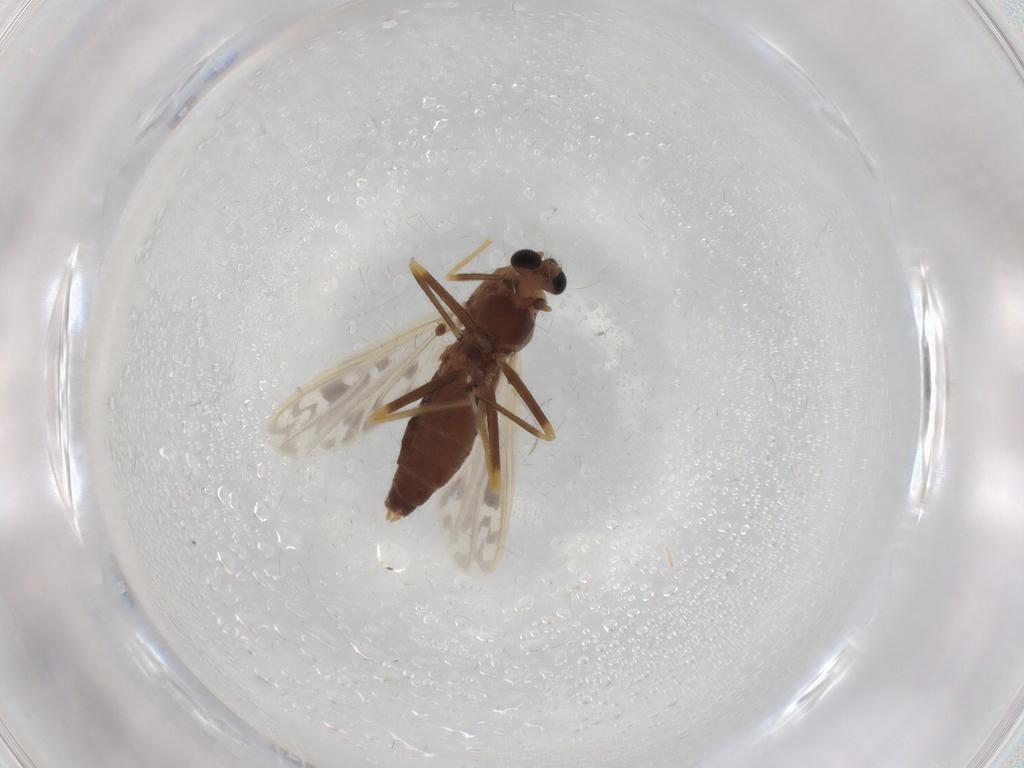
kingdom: Animalia
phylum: Arthropoda
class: Insecta
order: Diptera
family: Chironomidae
